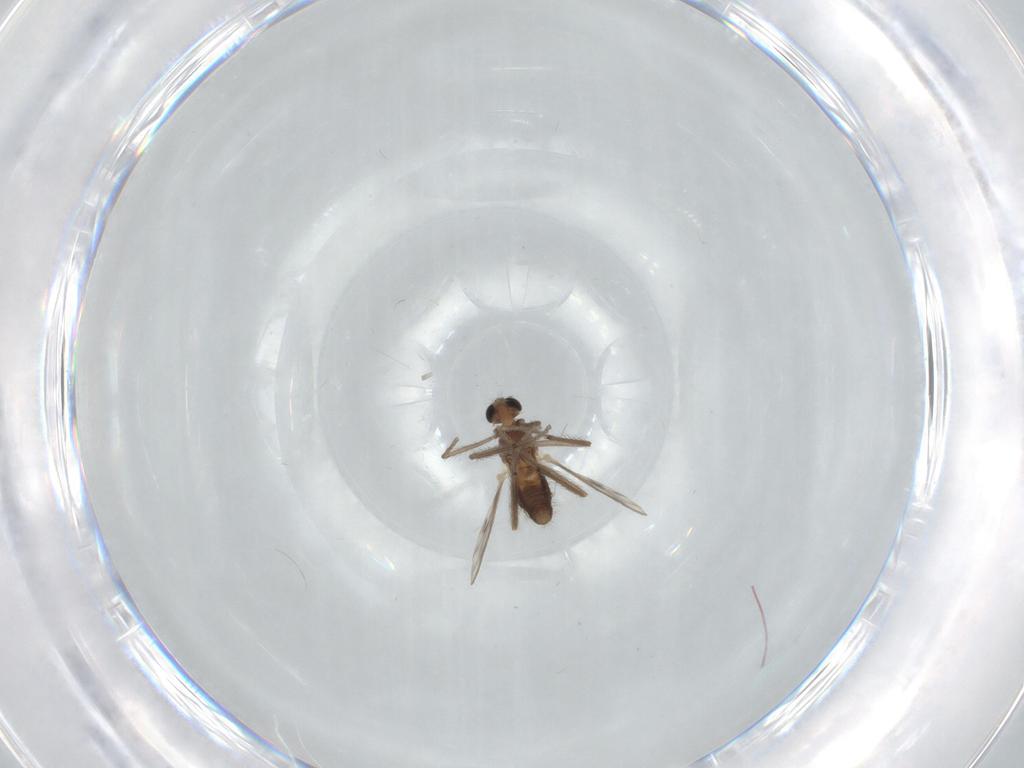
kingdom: Animalia
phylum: Arthropoda
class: Insecta
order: Diptera
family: Chironomidae
